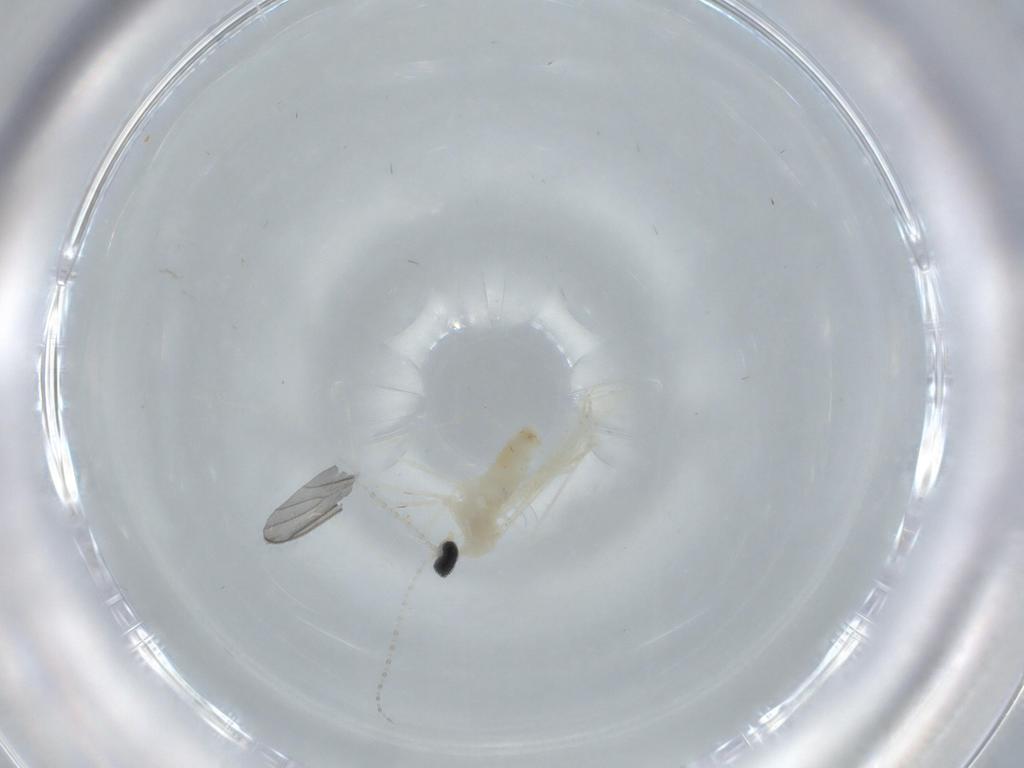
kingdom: Animalia
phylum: Arthropoda
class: Insecta
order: Diptera
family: Cecidomyiidae
